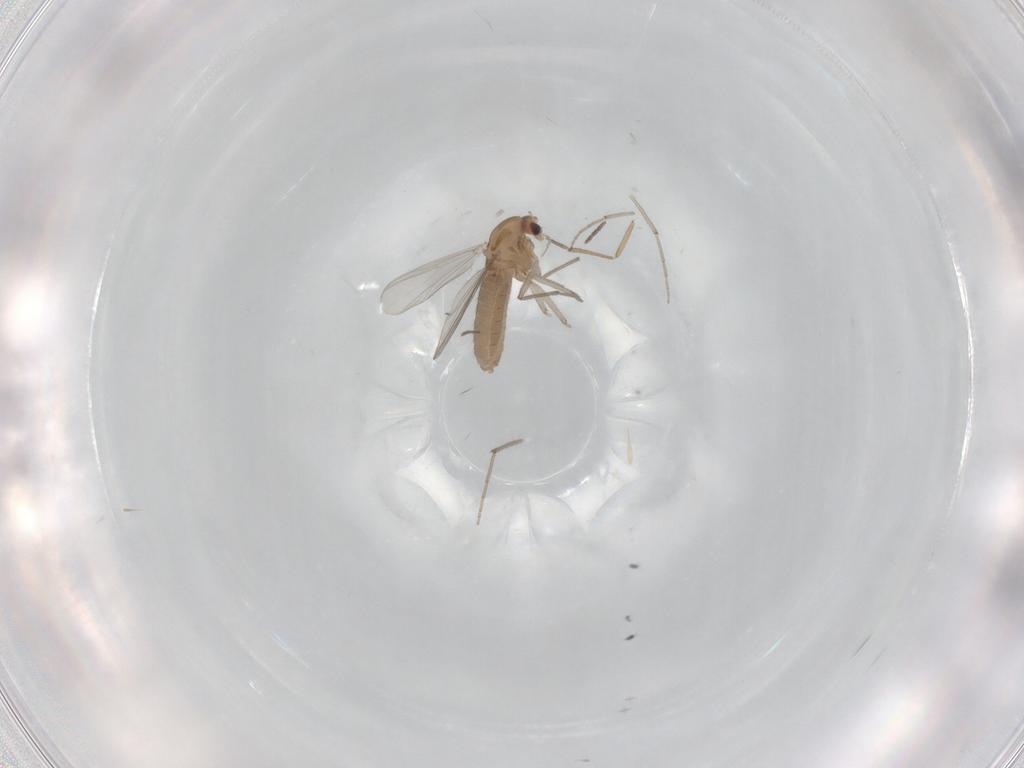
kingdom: Animalia
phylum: Arthropoda
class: Insecta
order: Diptera
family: Chironomidae
